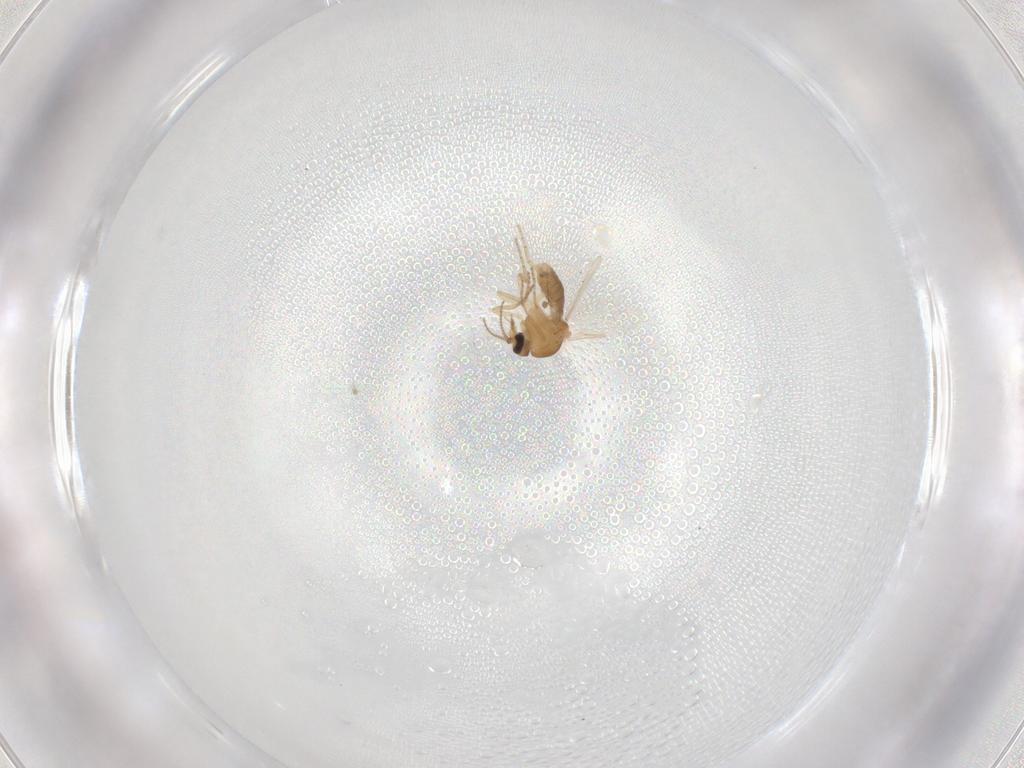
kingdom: Animalia
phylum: Arthropoda
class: Insecta
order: Diptera
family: Ceratopogonidae
